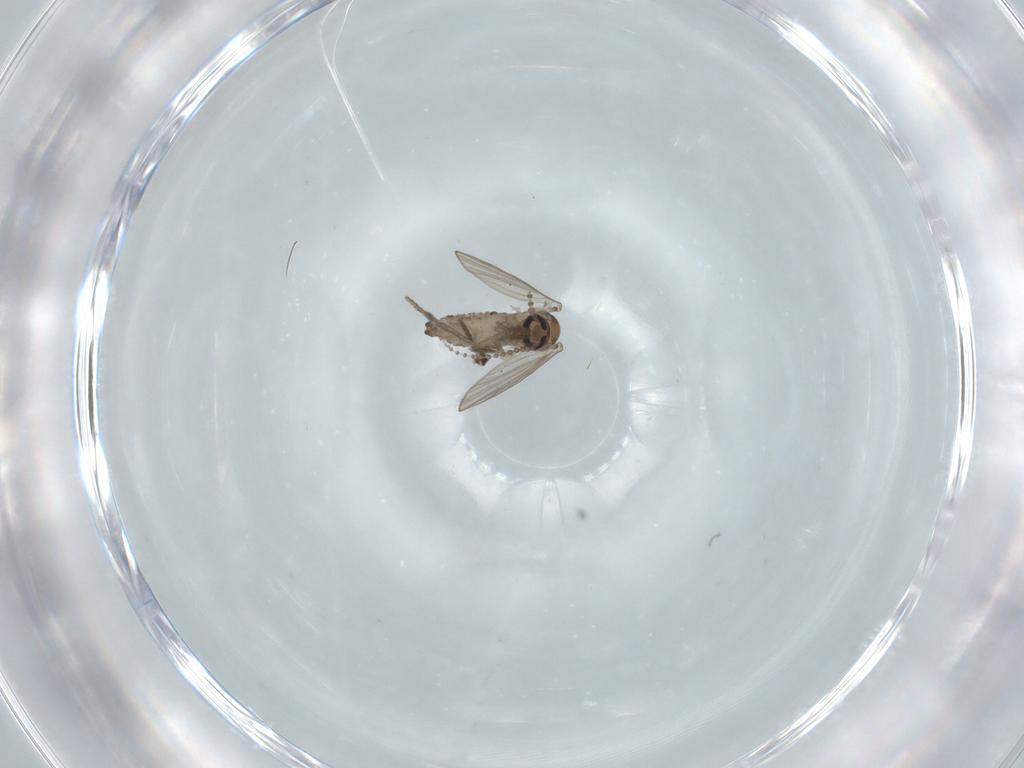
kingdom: Animalia
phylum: Arthropoda
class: Insecta
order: Diptera
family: Psychodidae
